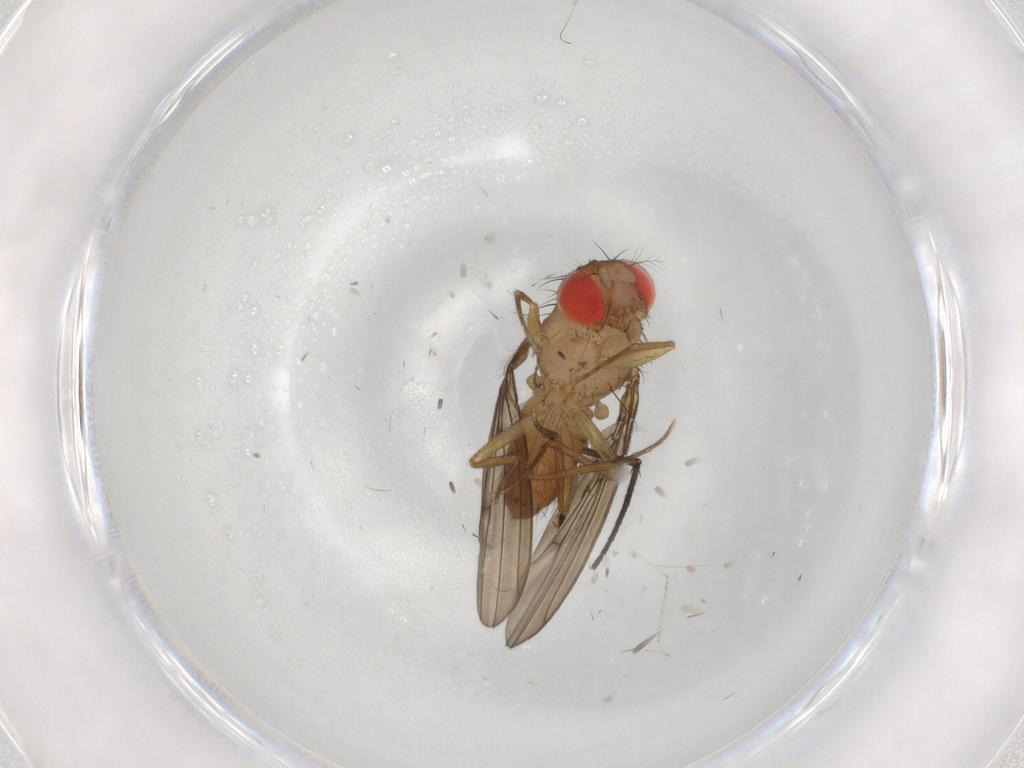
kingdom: Animalia
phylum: Arthropoda
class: Insecta
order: Diptera
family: Drosophilidae
